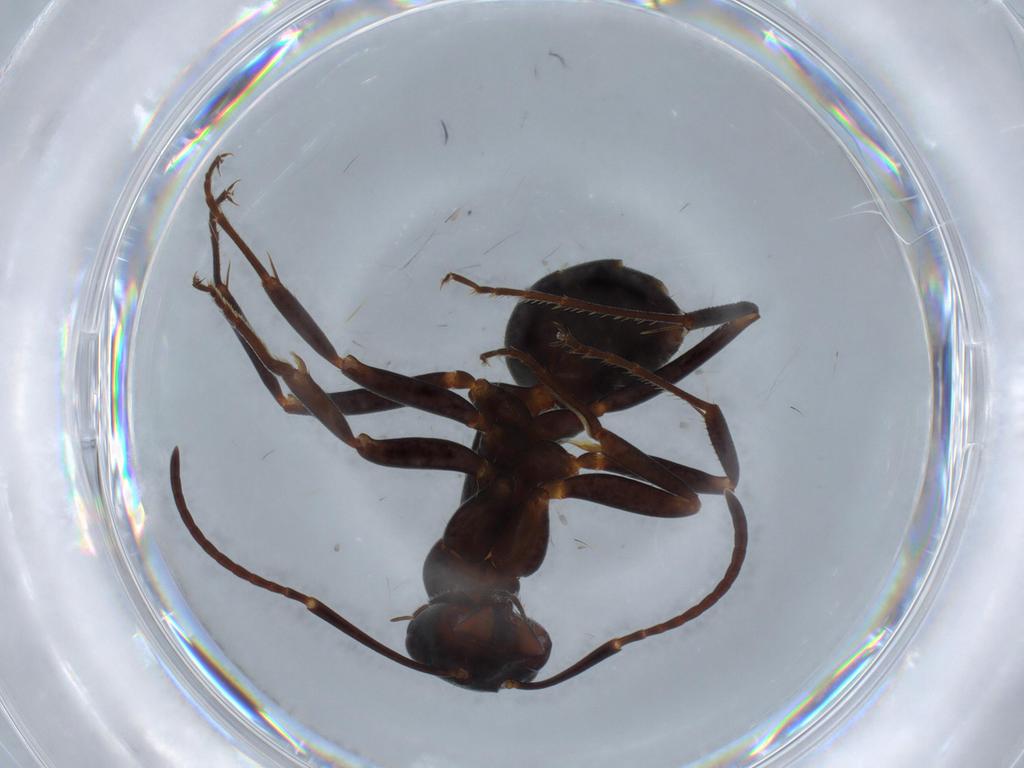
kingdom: Animalia
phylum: Arthropoda
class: Insecta
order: Hymenoptera
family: Formicidae
